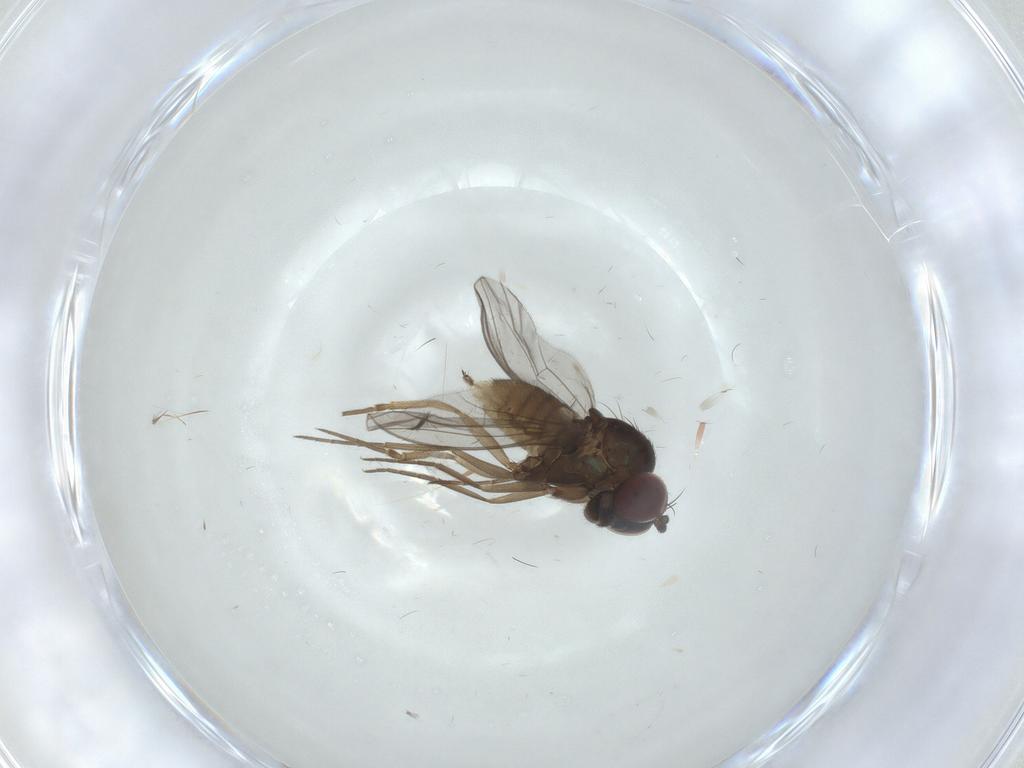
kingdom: Animalia
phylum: Arthropoda
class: Insecta
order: Diptera
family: Dolichopodidae
